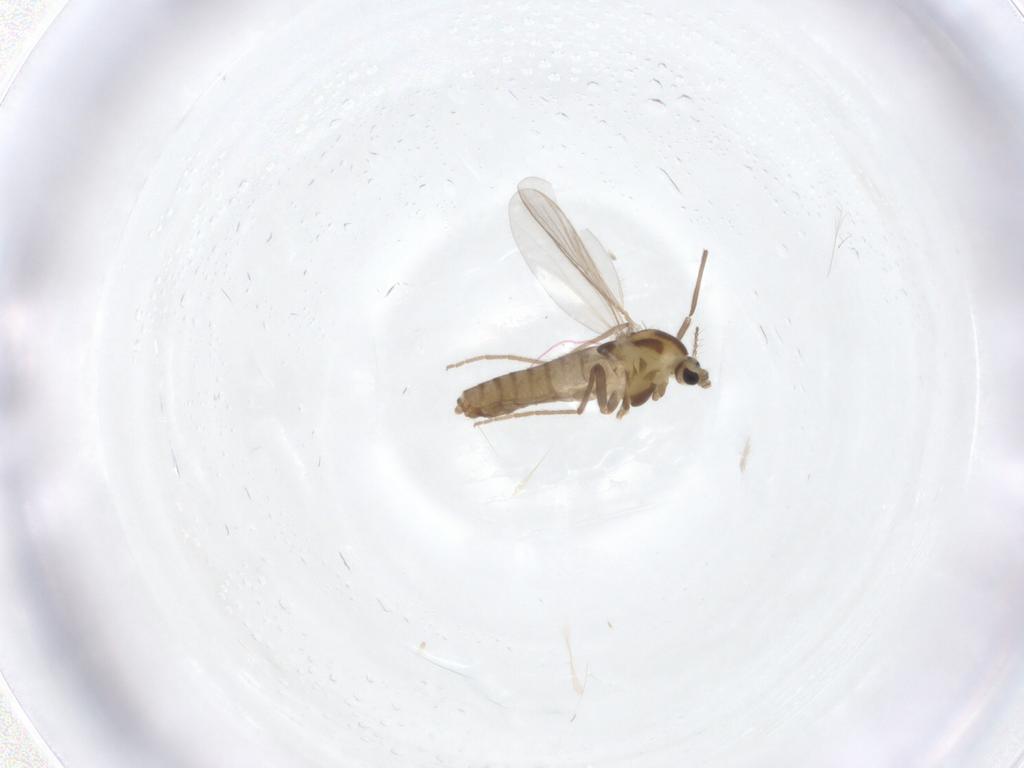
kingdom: Animalia
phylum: Arthropoda
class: Insecta
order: Diptera
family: Chironomidae
